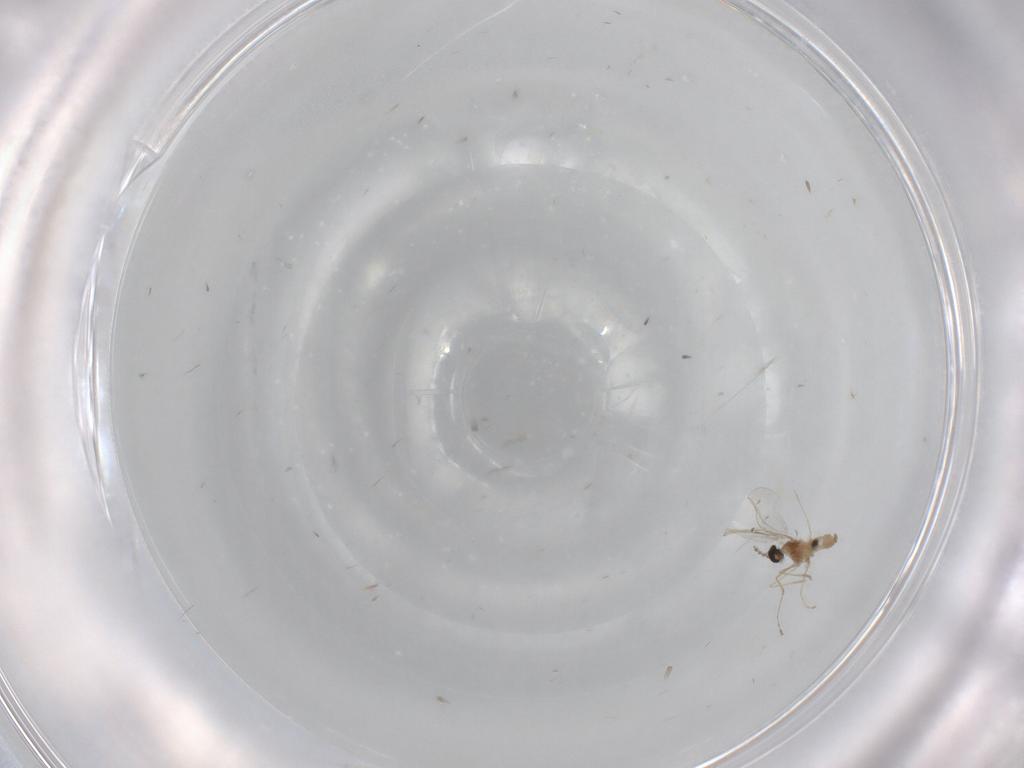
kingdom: Animalia
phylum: Arthropoda
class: Insecta
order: Diptera
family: Cecidomyiidae
